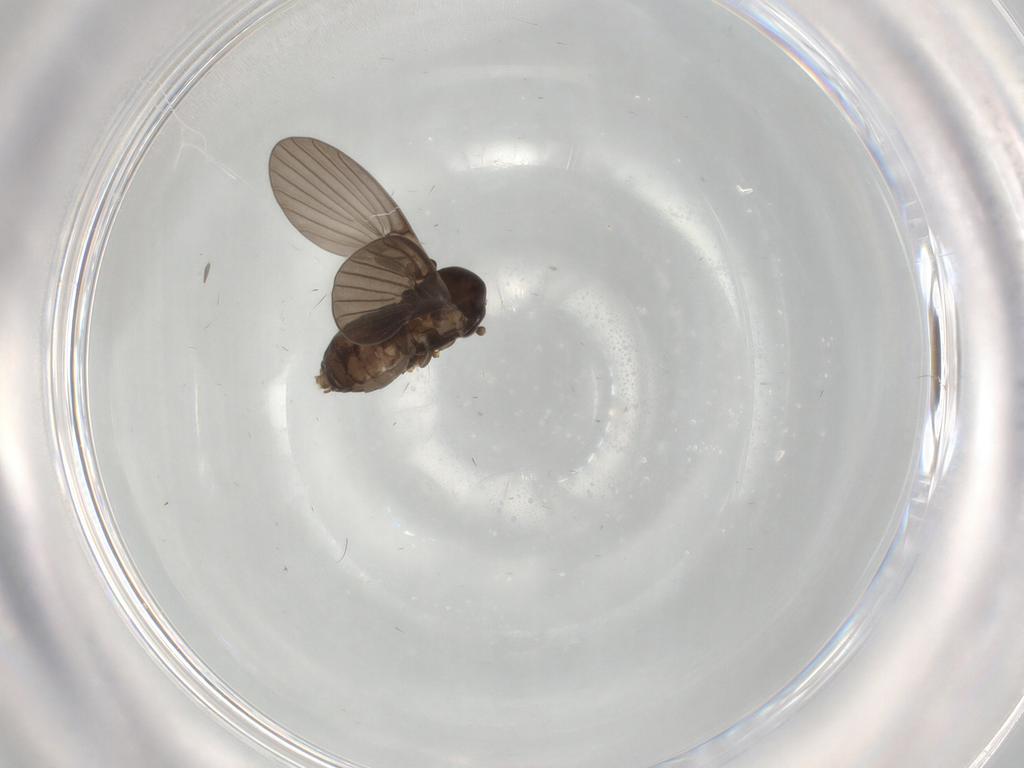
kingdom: Animalia
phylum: Arthropoda
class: Insecta
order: Diptera
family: Psychodidae
